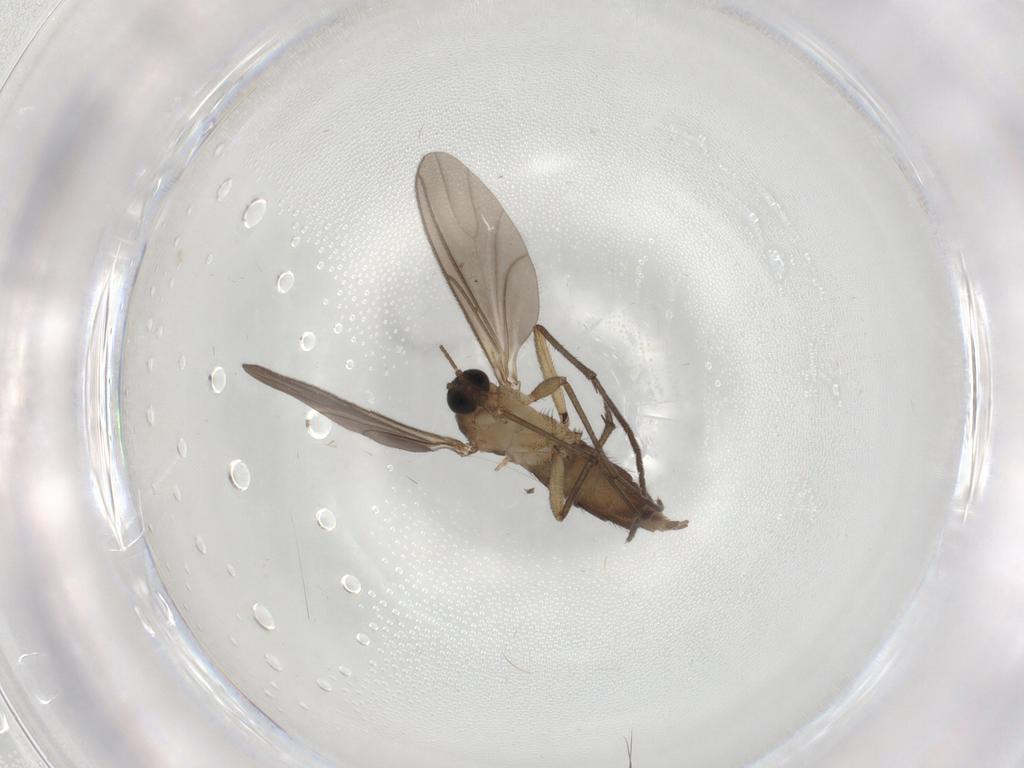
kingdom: Animalia
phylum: Arthropoda
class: Insecta
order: Diptera
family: Sciaridae
